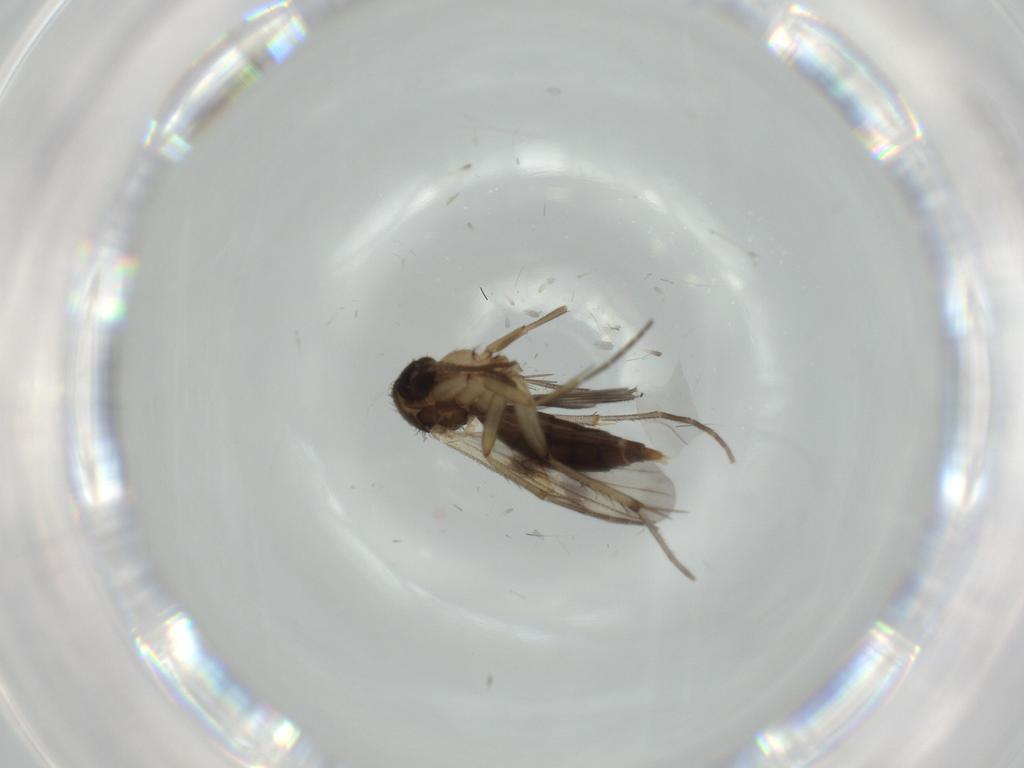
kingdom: Animalia
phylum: Arthropoda
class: Insecta
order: Diptera
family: Mycetophilidae
